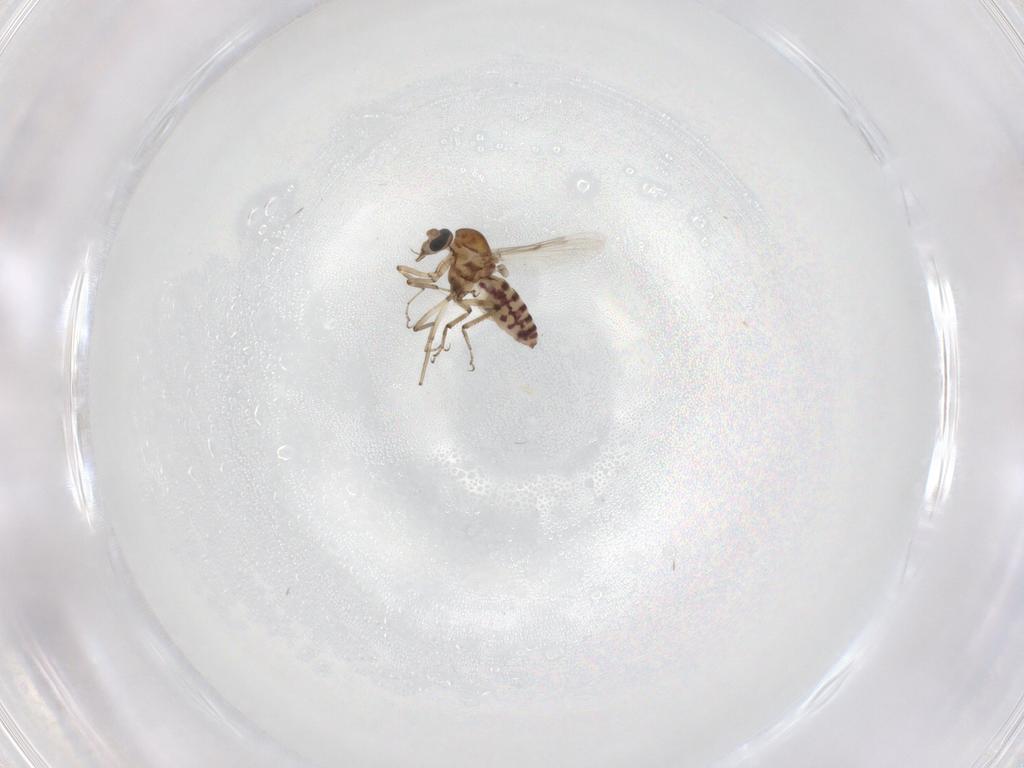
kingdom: Animalia
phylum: Arthropoda
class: Insecta
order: Diptera
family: Ceratopogonidae
